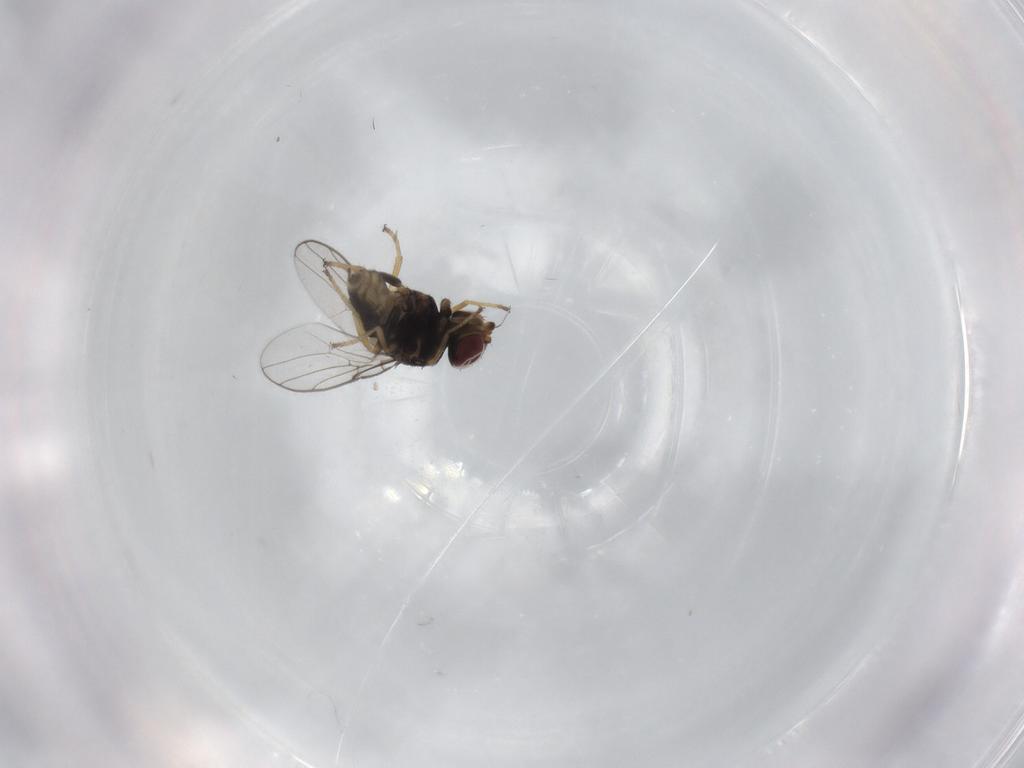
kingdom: Animalia
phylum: Arthropoda
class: Insecta
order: Diptera
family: Chloropidae
